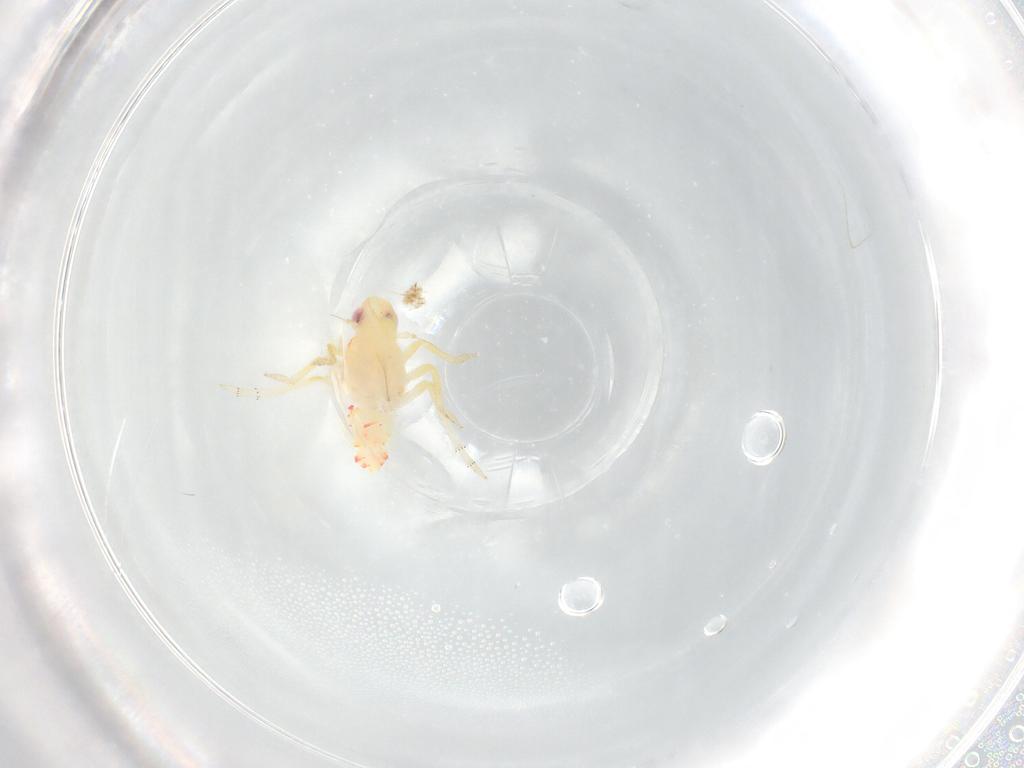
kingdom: Animalia
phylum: Arthropoda
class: Insecta
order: Hemiptera
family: Tropiduchidae
